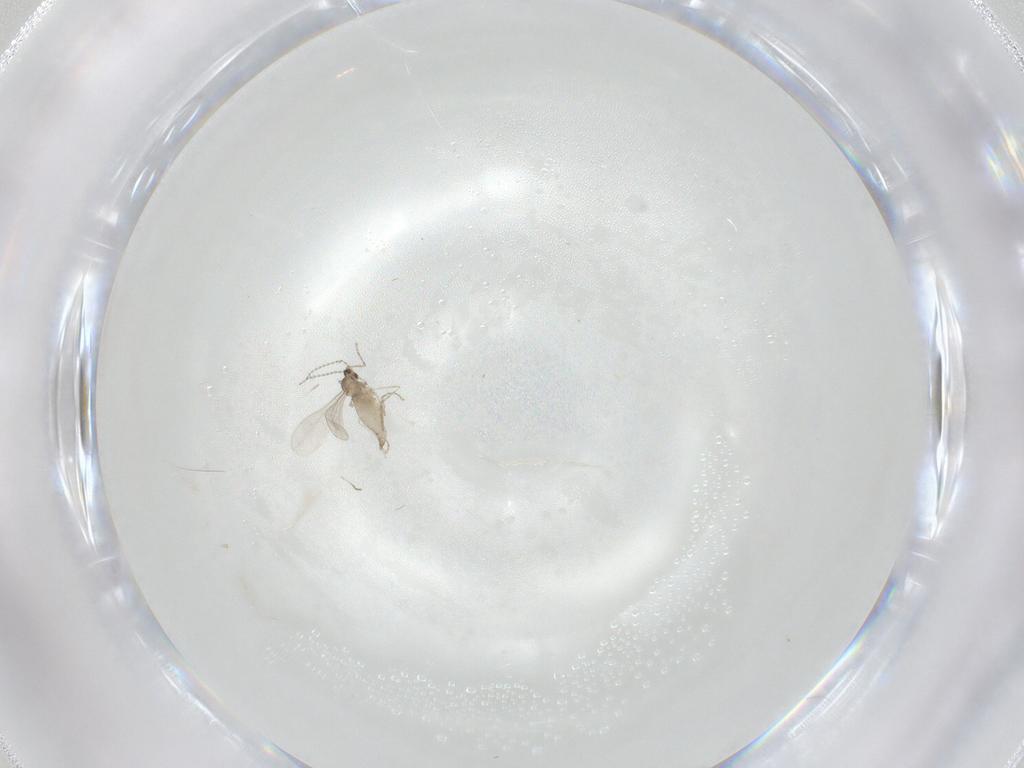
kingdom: Animalia
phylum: Arthropoda
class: Insecta
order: Diptera
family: Cecidomyiidae
